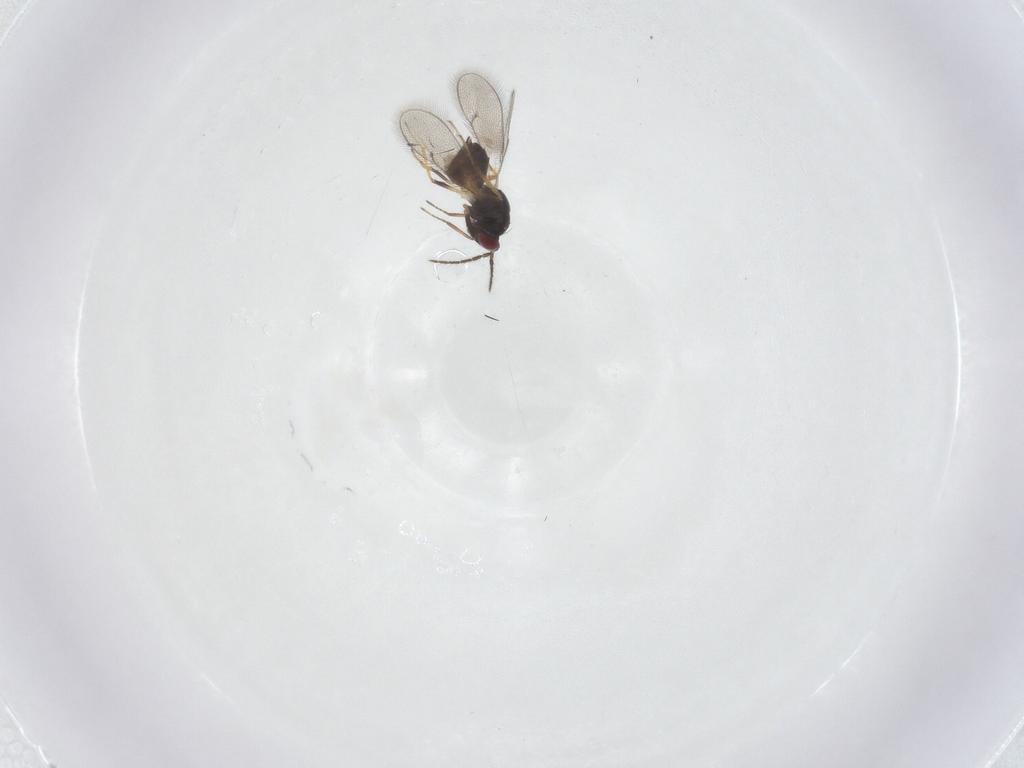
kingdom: Animalia
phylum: Arthropoda
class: Insecta
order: Hymenoptera
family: Eulophidae
